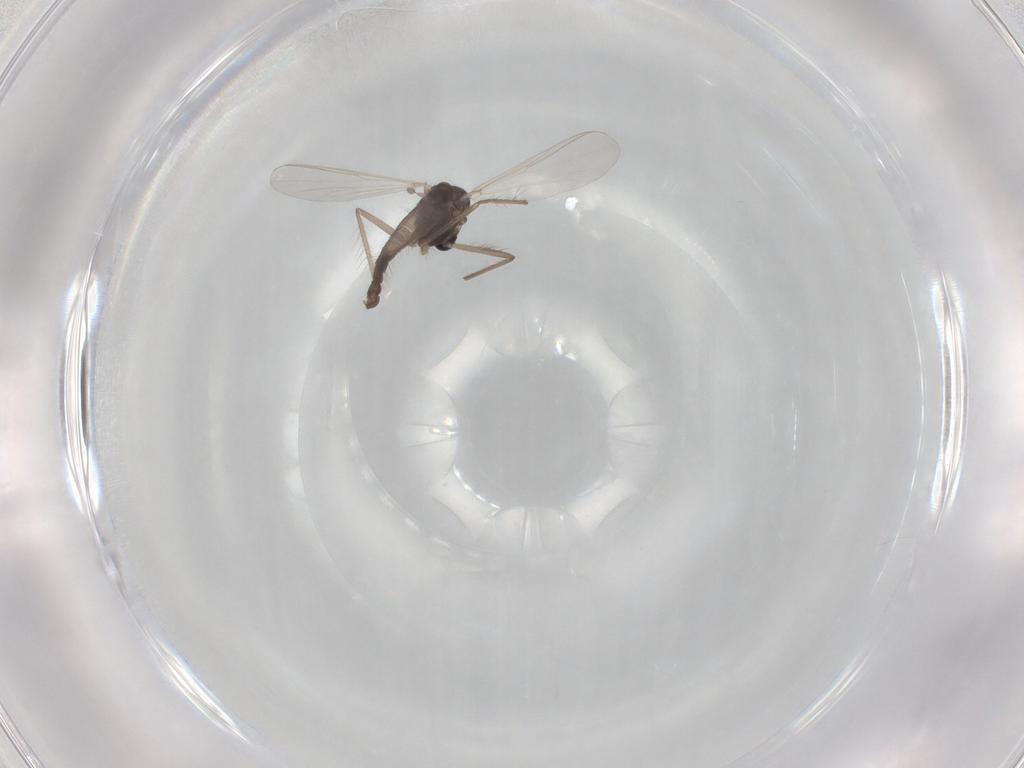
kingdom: Animalia
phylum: Arthropoda
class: Insecta
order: Diptera
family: Chironomidae
